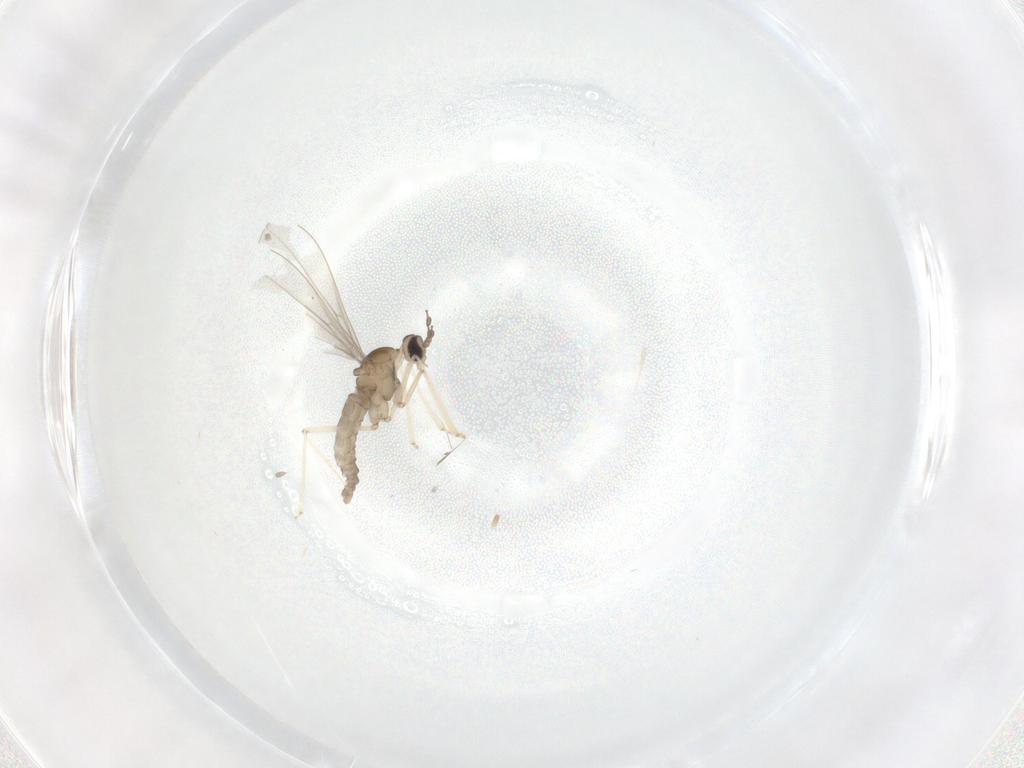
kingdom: Animalia
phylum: Arthropoda
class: Insecta
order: Diptera
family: Cecidomyiidae
